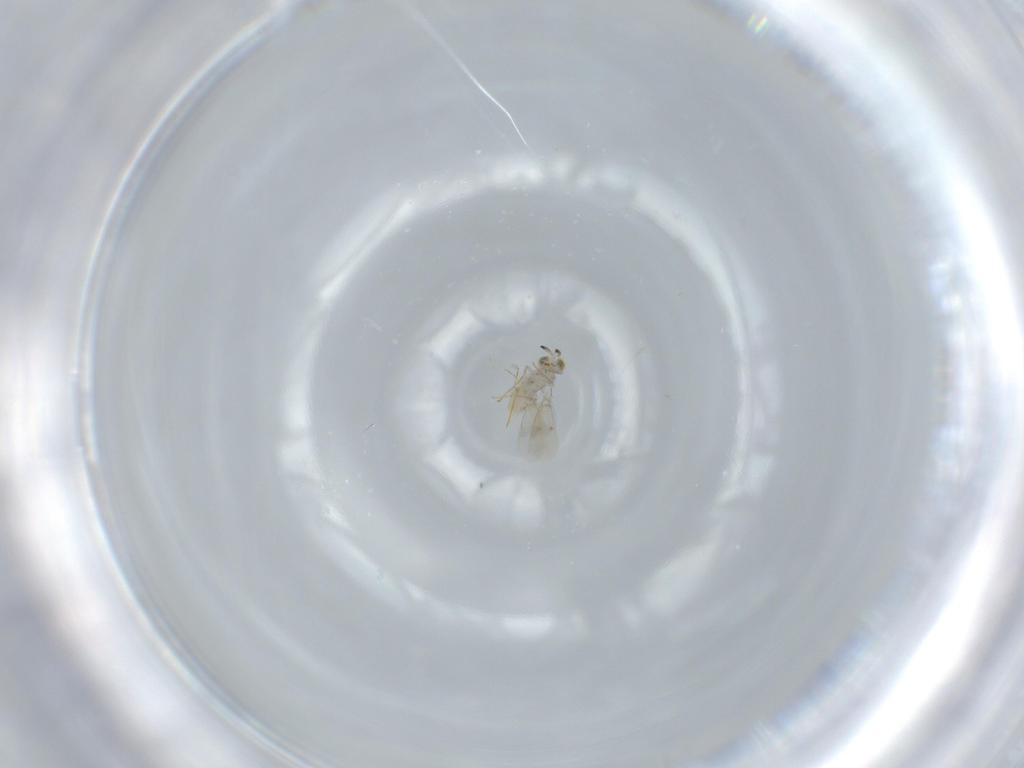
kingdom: Animalia
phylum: Arthropoda
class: Insecta
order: Hymenoptera
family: Aphelinidae
